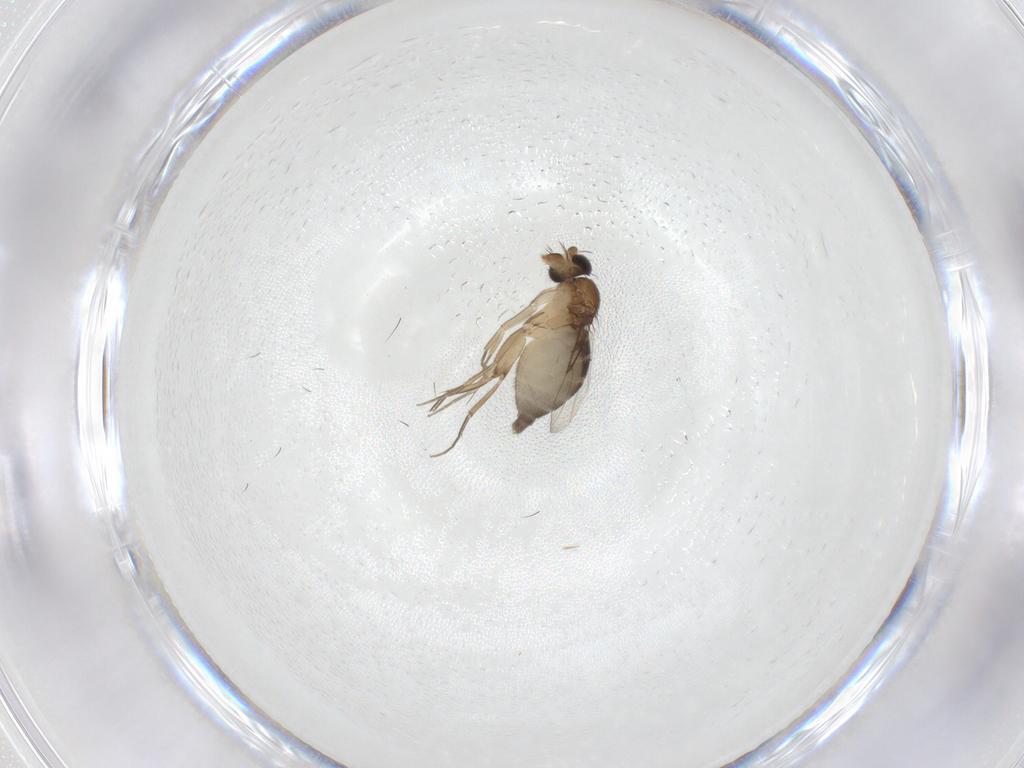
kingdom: Animalia
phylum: Arthropoda
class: Insecta
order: Diptera
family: Phoridae
